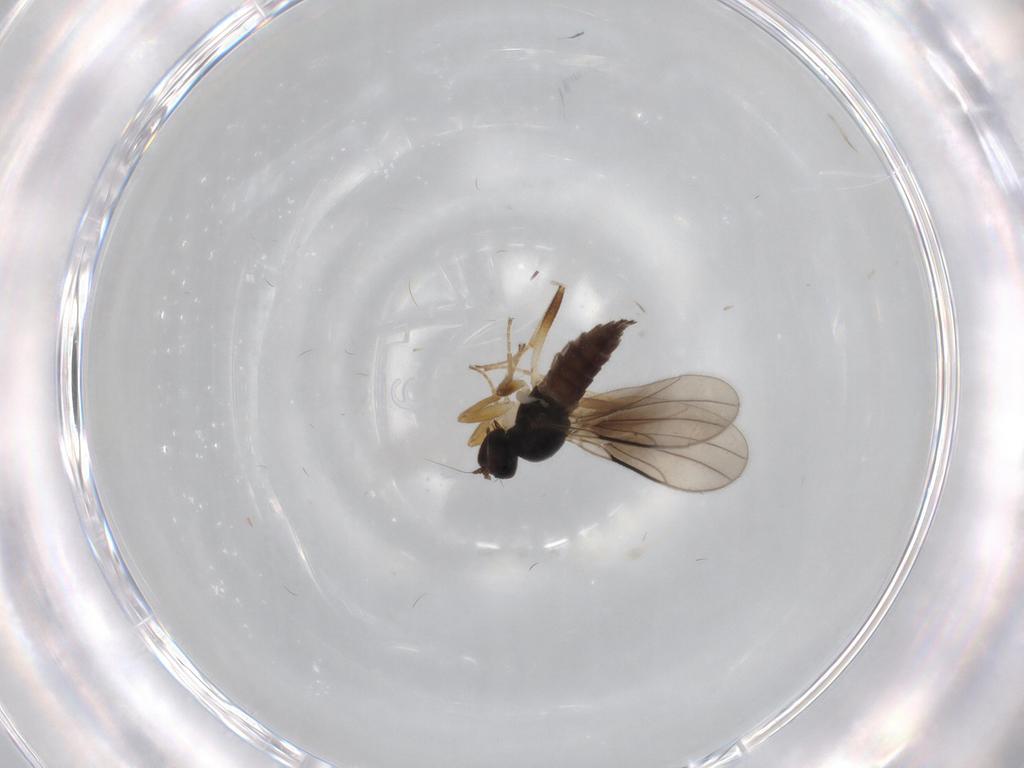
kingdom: Animalia
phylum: Arthropoda
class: Insecta
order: Diptera
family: Hybotidae
